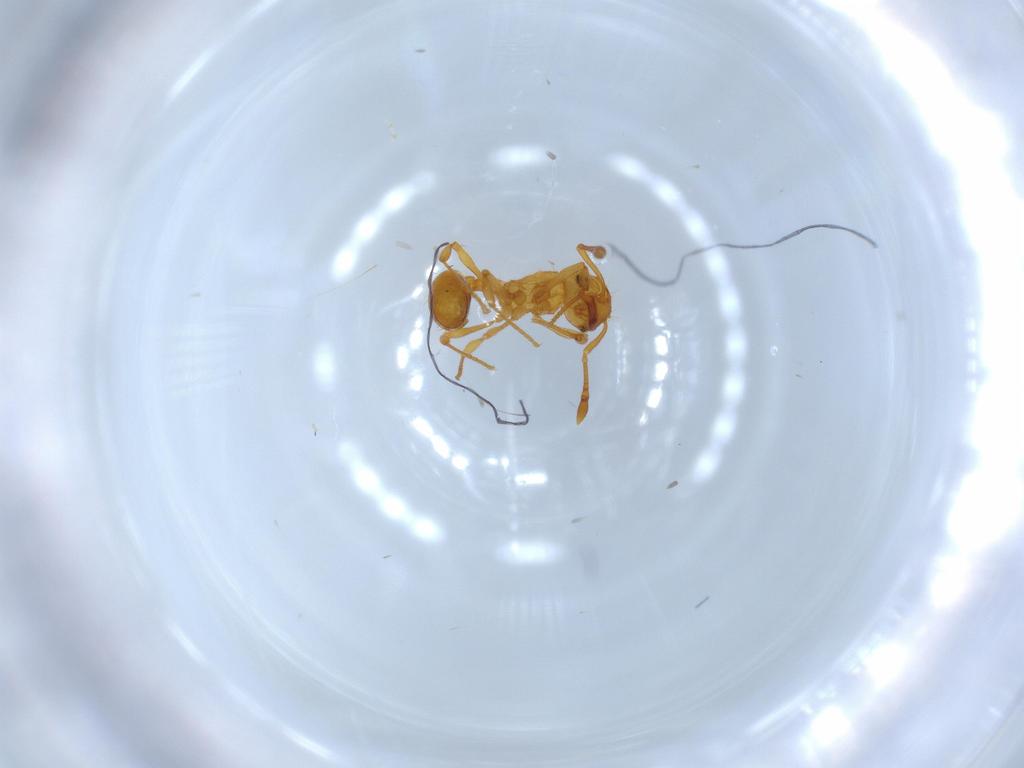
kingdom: Animalia
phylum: Arthropoda
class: Insecta
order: Hymenoptera
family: Formicidae
